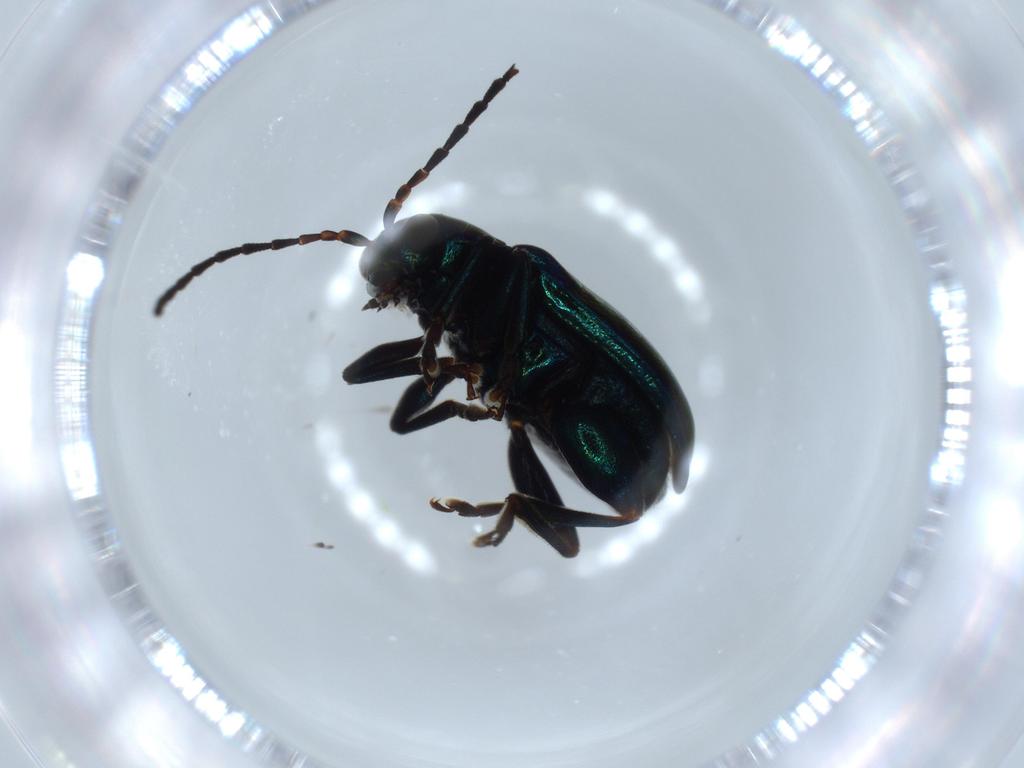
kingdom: Animalia
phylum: Arthropoda
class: Insecta
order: Coleoptera
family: Chrysomelidae
